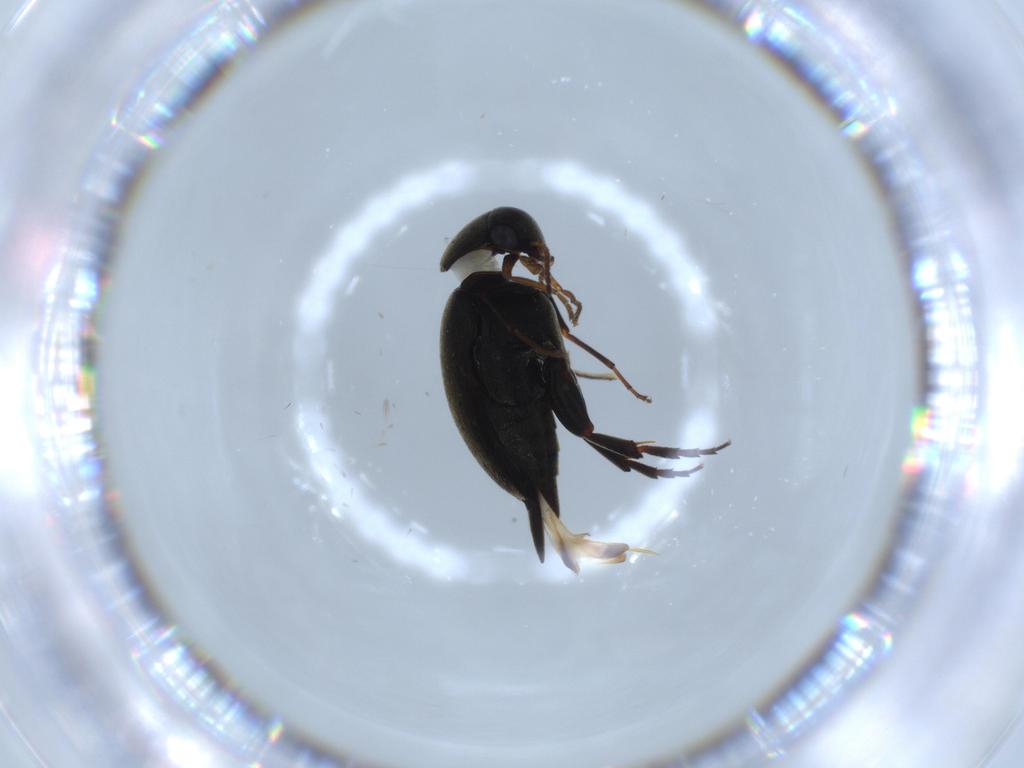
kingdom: Animalia
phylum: Arthropoda
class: Insecta
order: Coleoptera
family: Mordellidae
